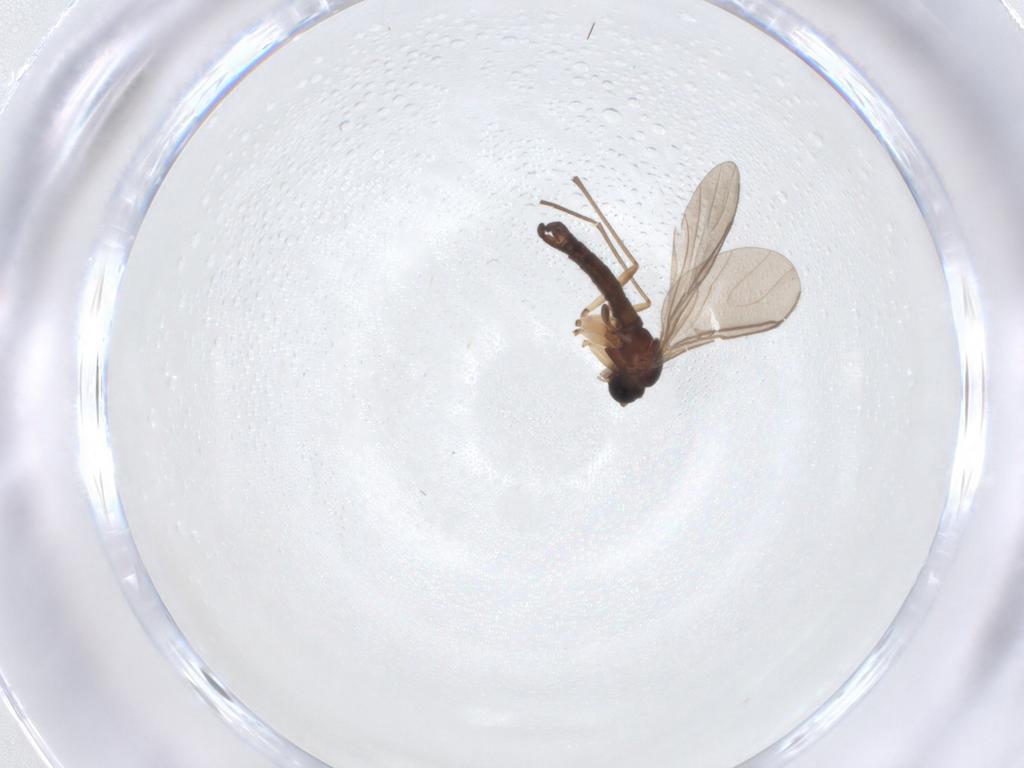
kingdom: Animalia
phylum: Arthropoda
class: Insecta
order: Diptera
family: Sciaridae
